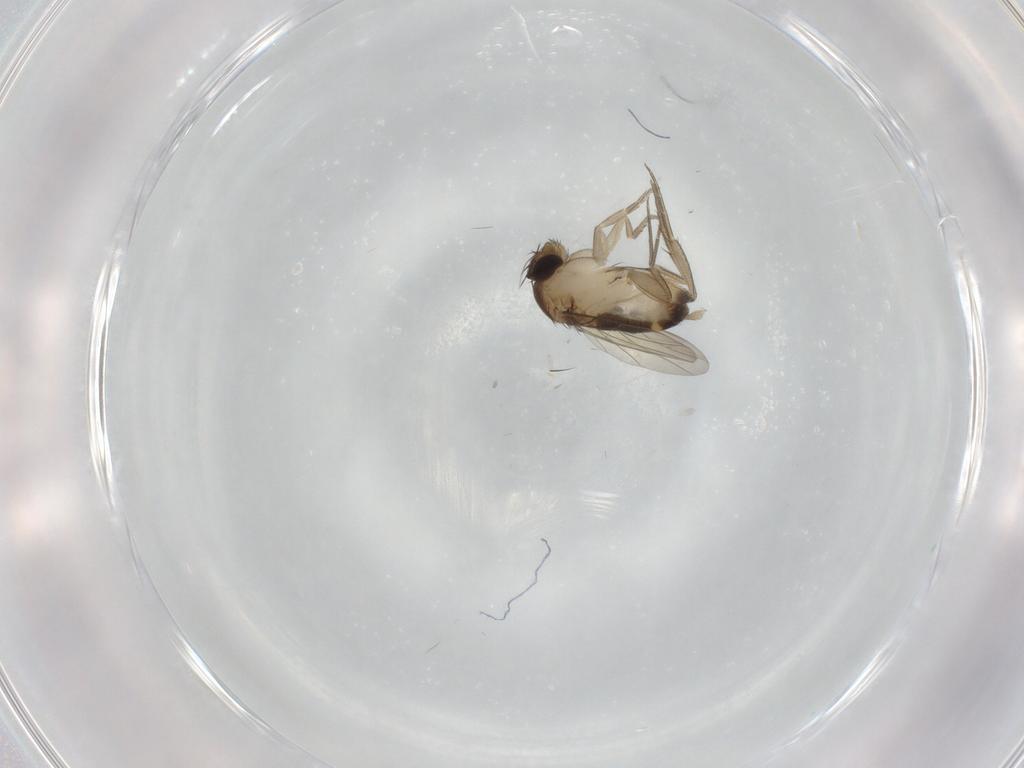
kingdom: Animalia
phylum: Arthropoda
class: Insecta
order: Diptera
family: Phoridae
